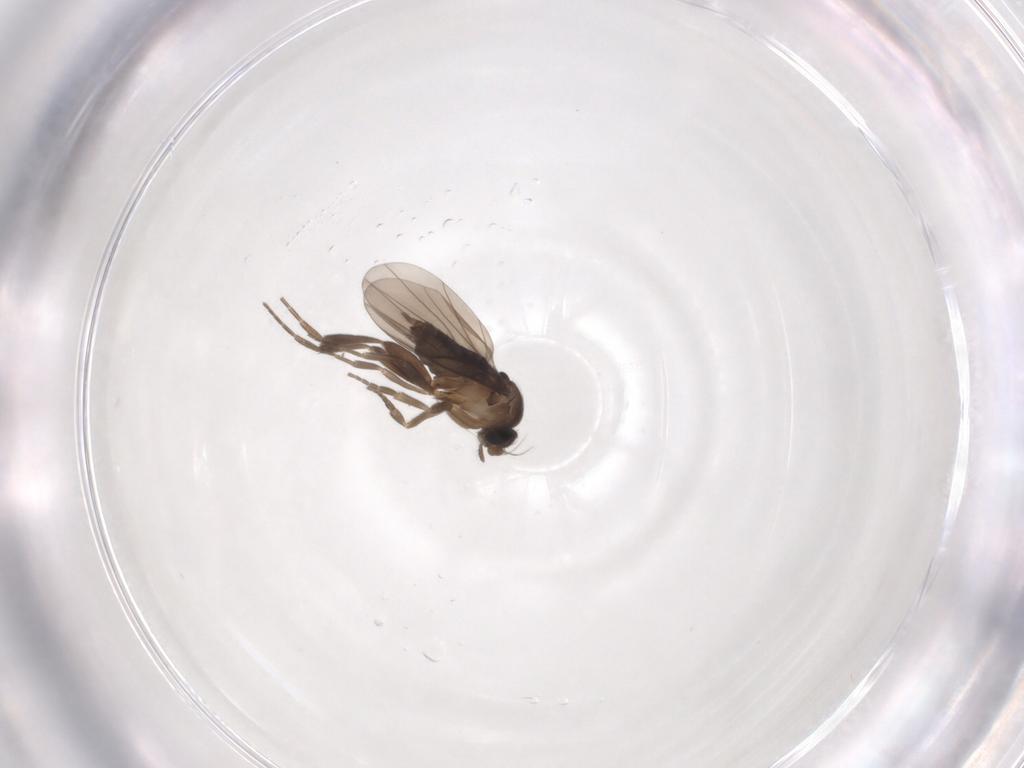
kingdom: Animalia
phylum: Arthropoda
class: Insecta
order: Diptera
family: Phoridae
